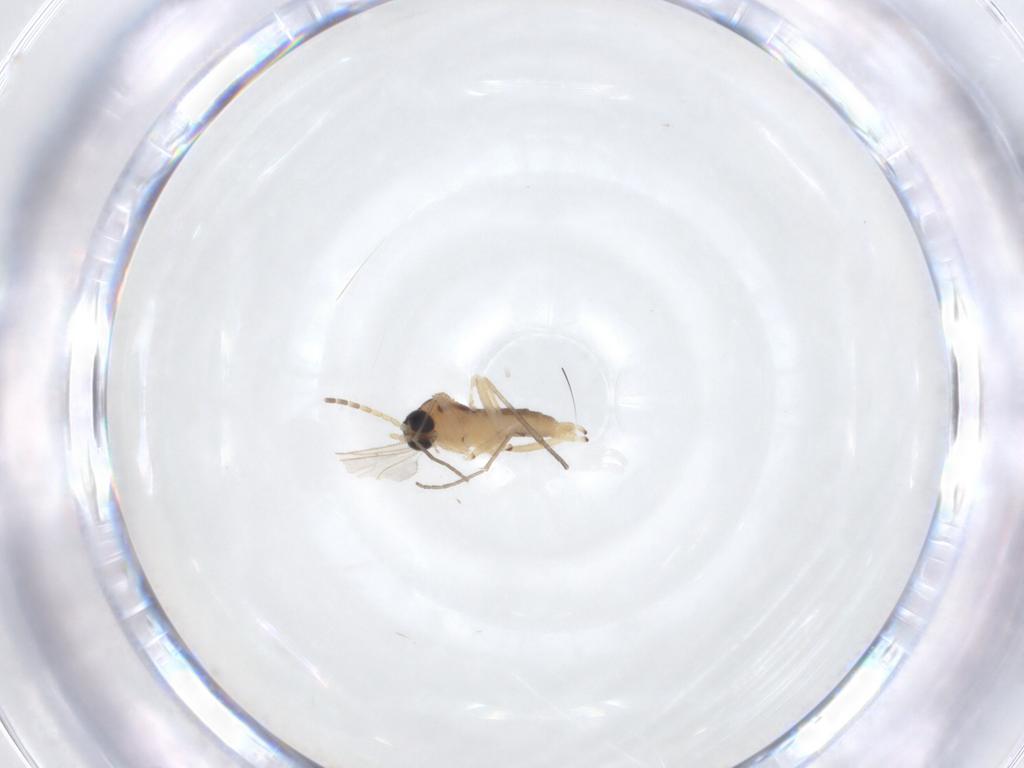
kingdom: Animalia
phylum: Arthropoda
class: Insecta
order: Diptera
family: Sciaridae
